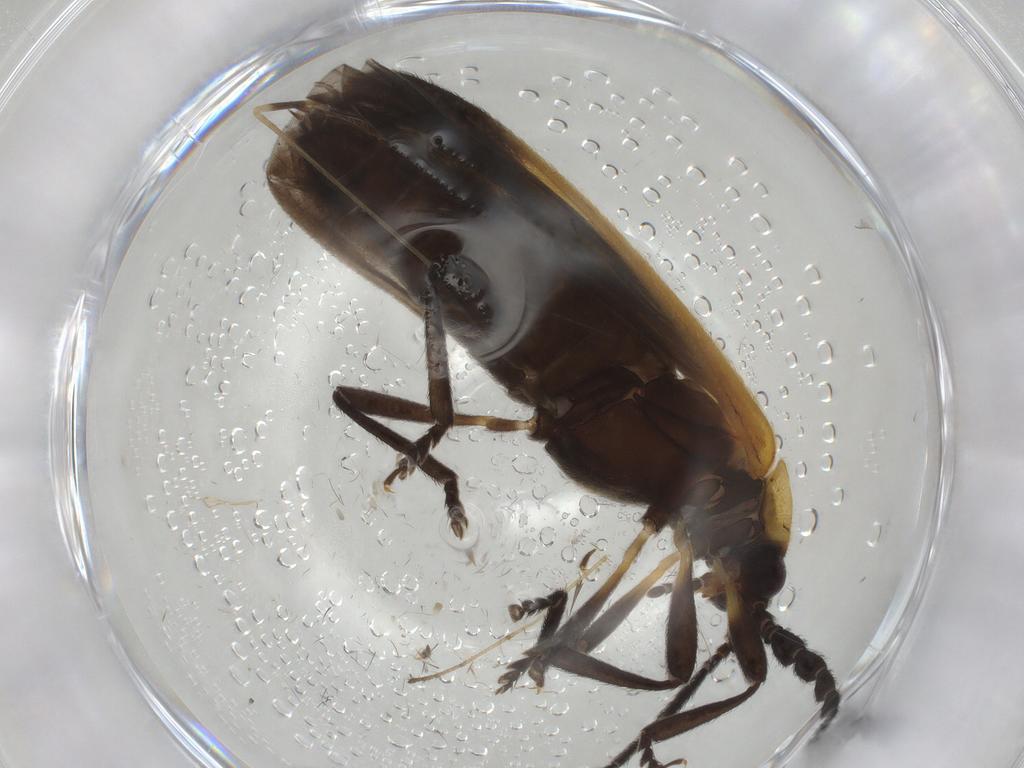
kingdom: Animalia
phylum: Arthropoda
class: Insecta
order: Coleoptera
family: Lycidae
